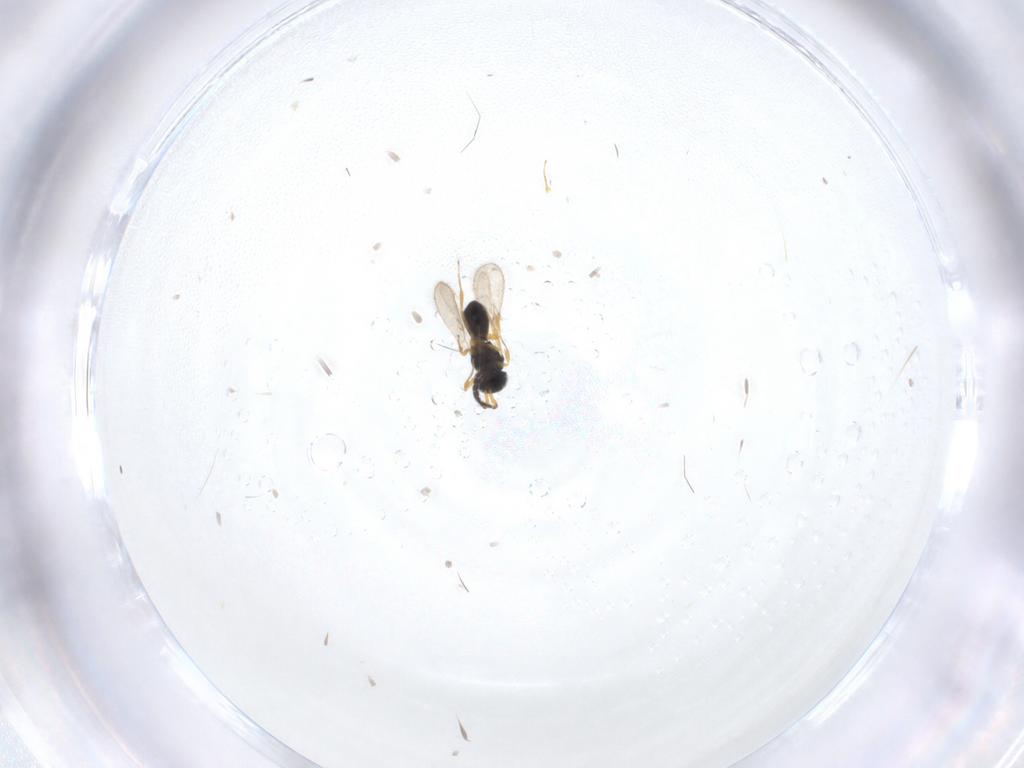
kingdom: Animalia
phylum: Arthropoda
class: Insecta
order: Hymenoptera
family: Scelionidae
